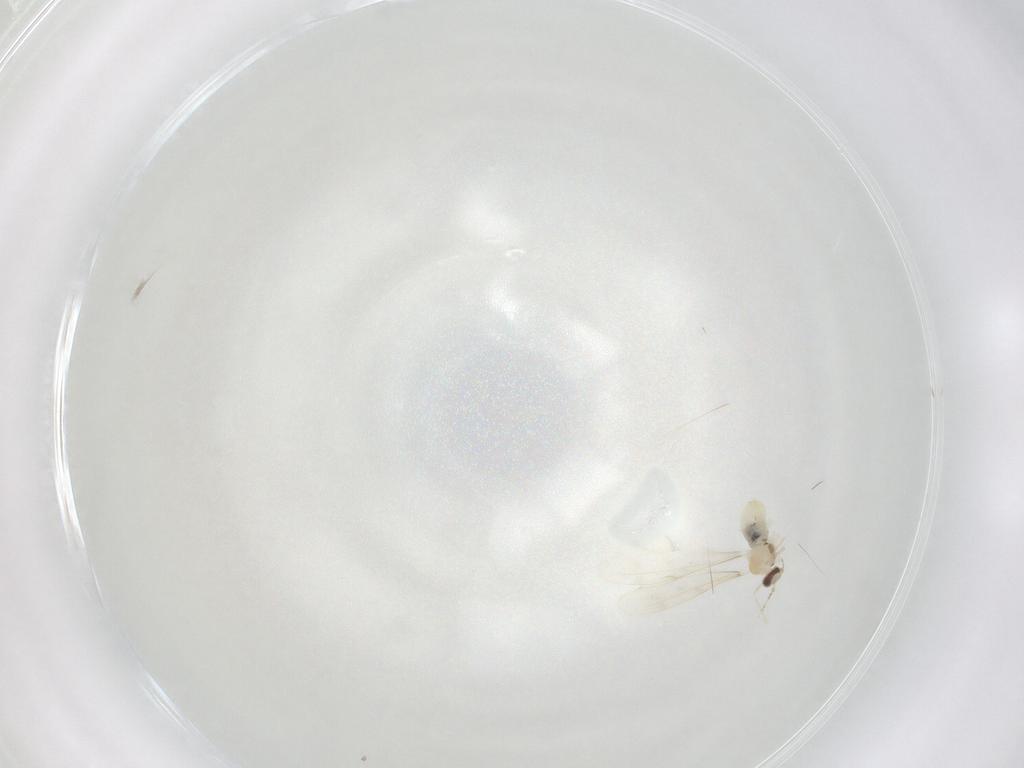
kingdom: Animalia
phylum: Arthropoda
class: Insecta
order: Diptera
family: Cecidomyiidae
